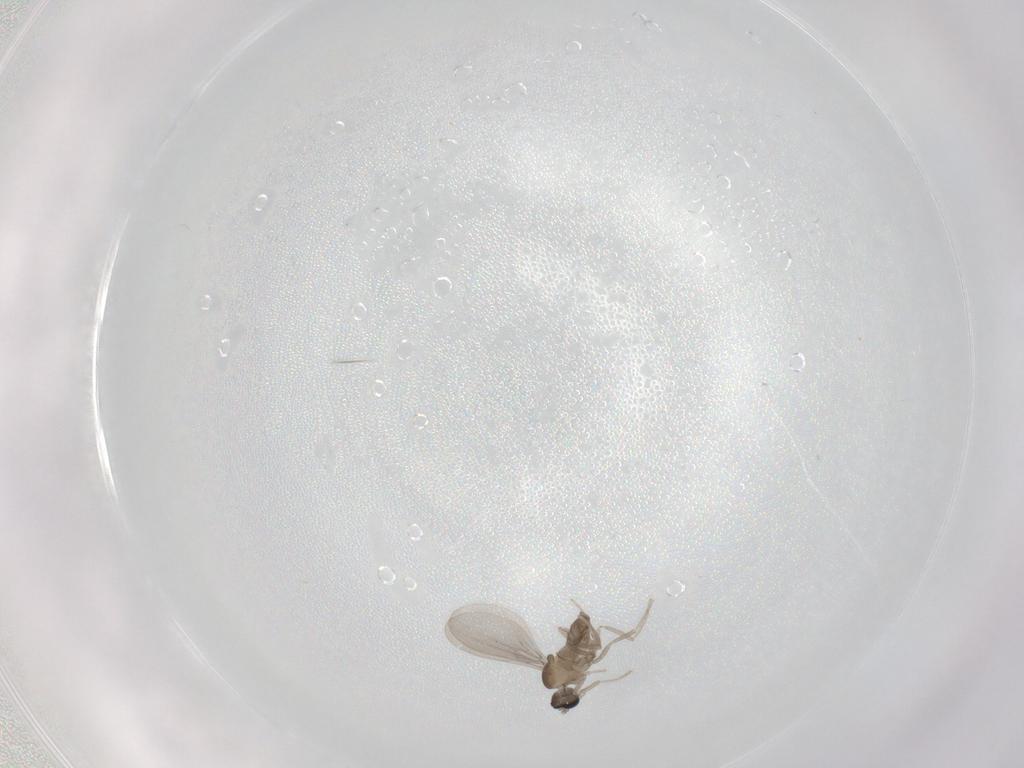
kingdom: Animalia
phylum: Arthropoda
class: Insecta
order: Diptera
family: Cecidomyiidae
